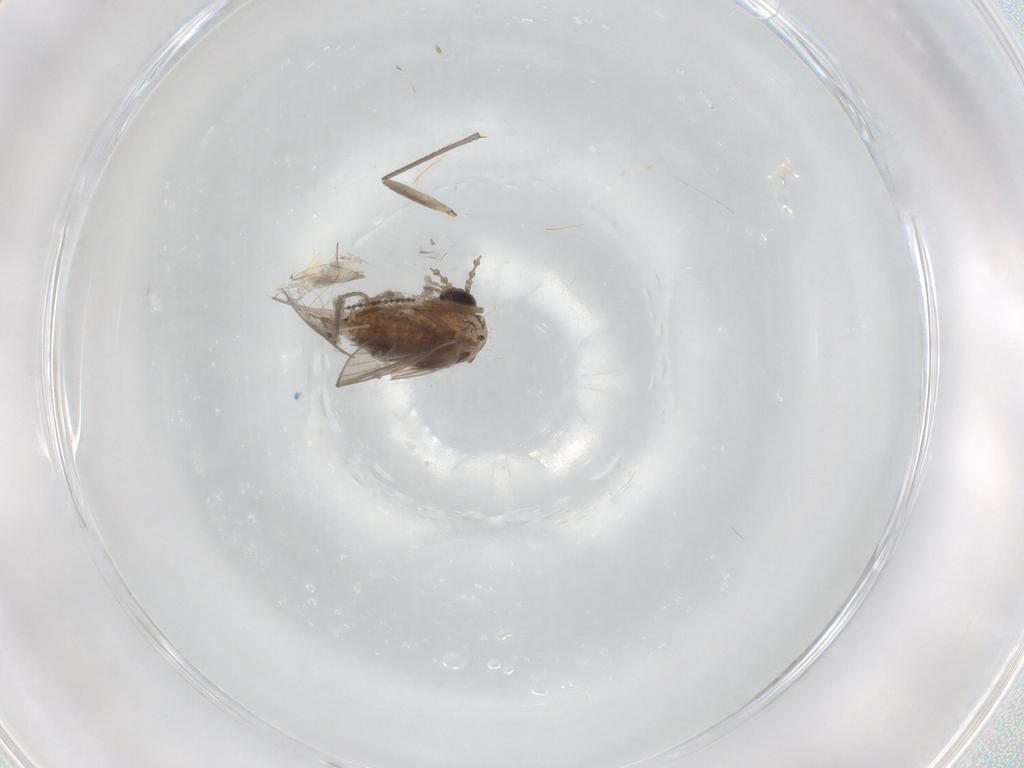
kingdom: Animalia
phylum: Arthropoda
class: Insecta
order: Diptera
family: Psychodidae
